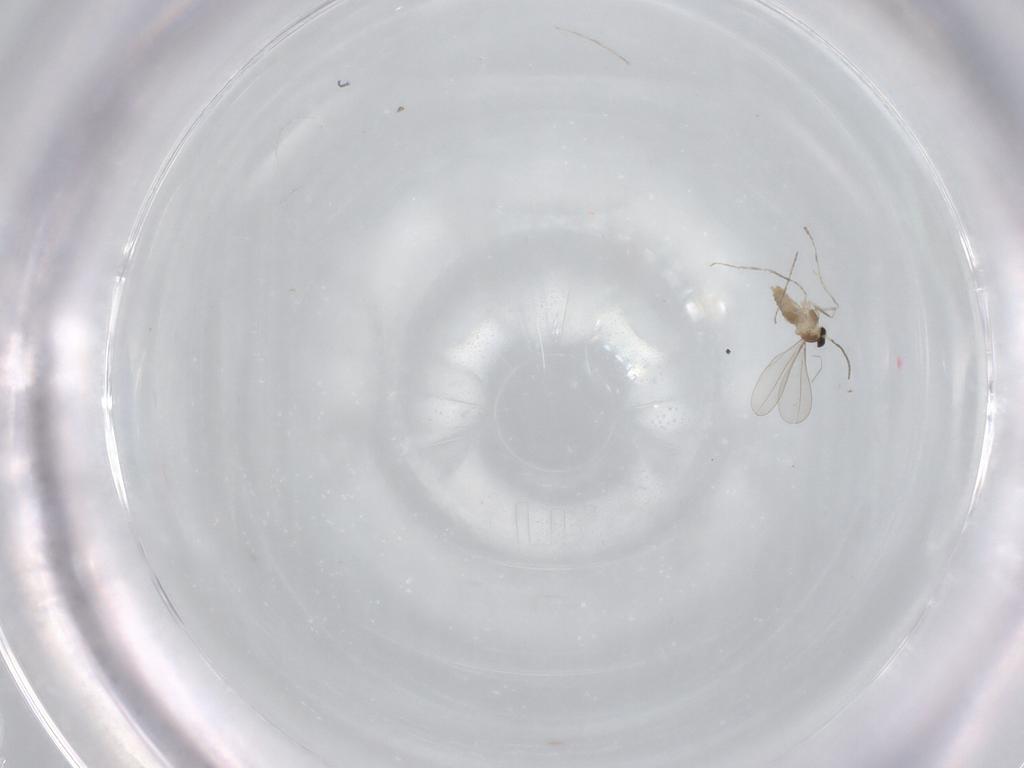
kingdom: Animalia
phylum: Arthropoda
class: Insecta
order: Diptera
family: Cecidomyiidae
